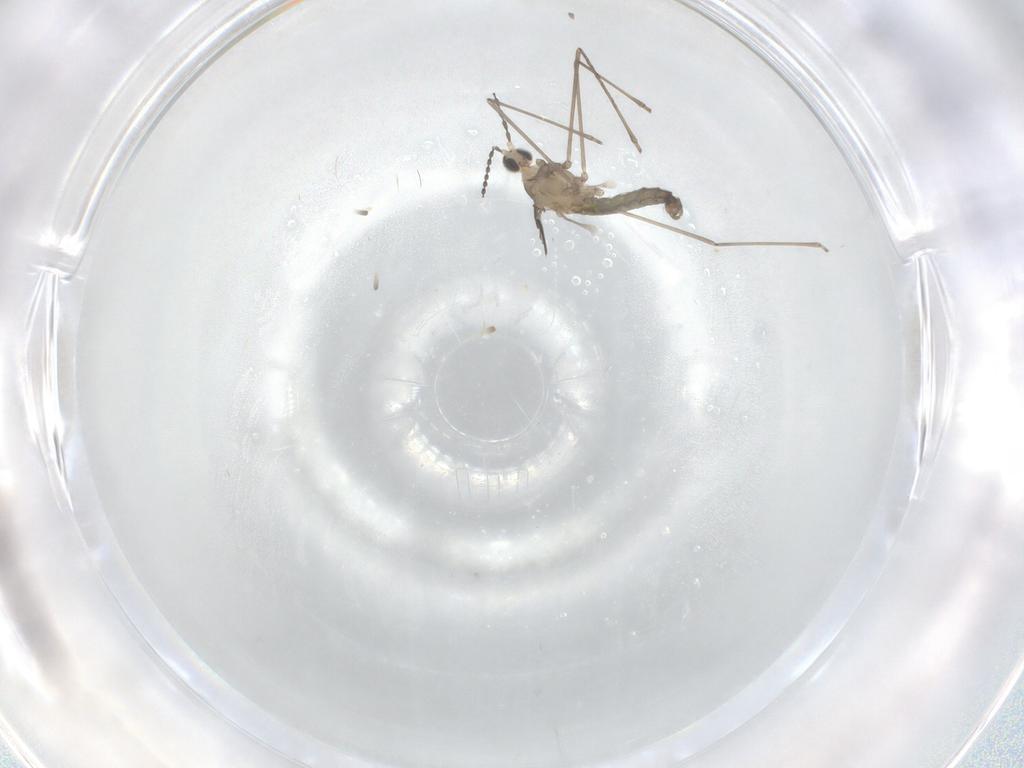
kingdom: Animalia
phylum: Arthropoda
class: Insecta
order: Diptera
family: Cecidomyiidae
